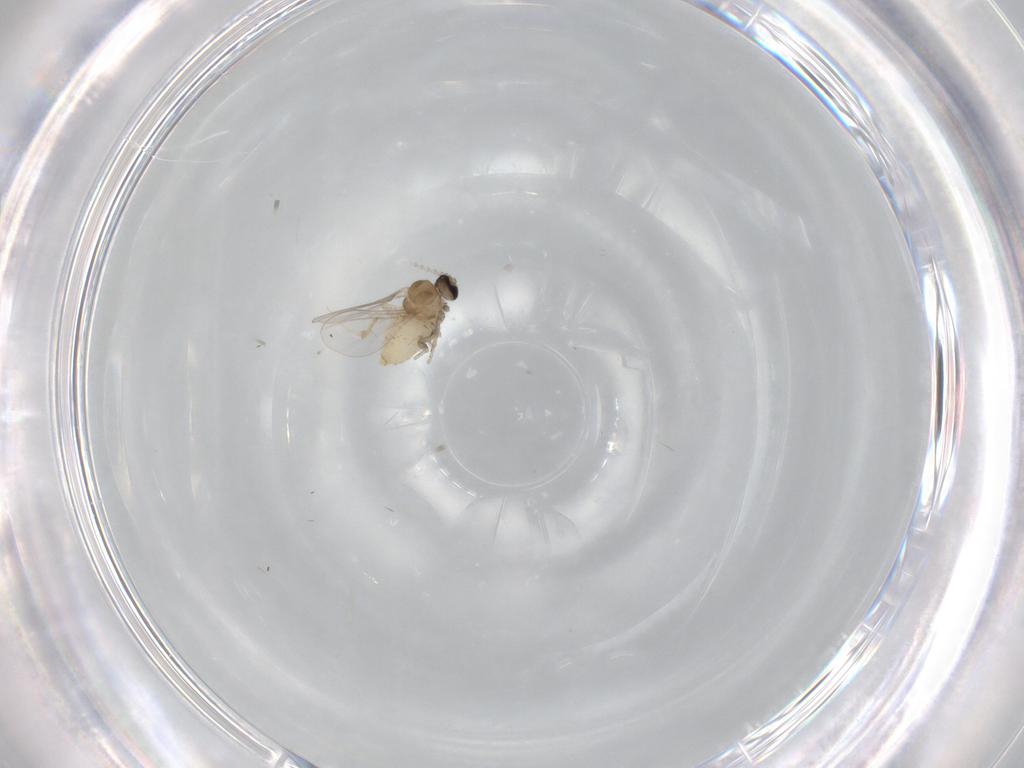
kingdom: Animalia
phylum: Arthropoda
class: Insecta
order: Diptera
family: Cecidomyiidae
